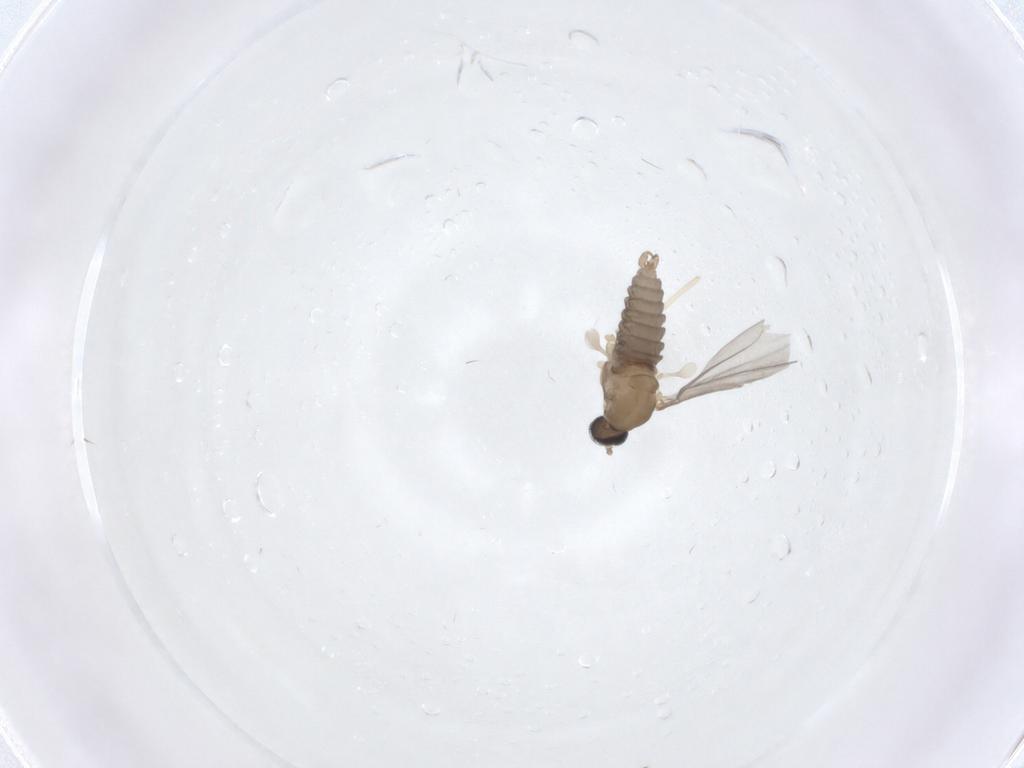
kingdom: Animalia
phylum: Arthropoda
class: Insecta
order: Diptera
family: Cecidomyiidae
